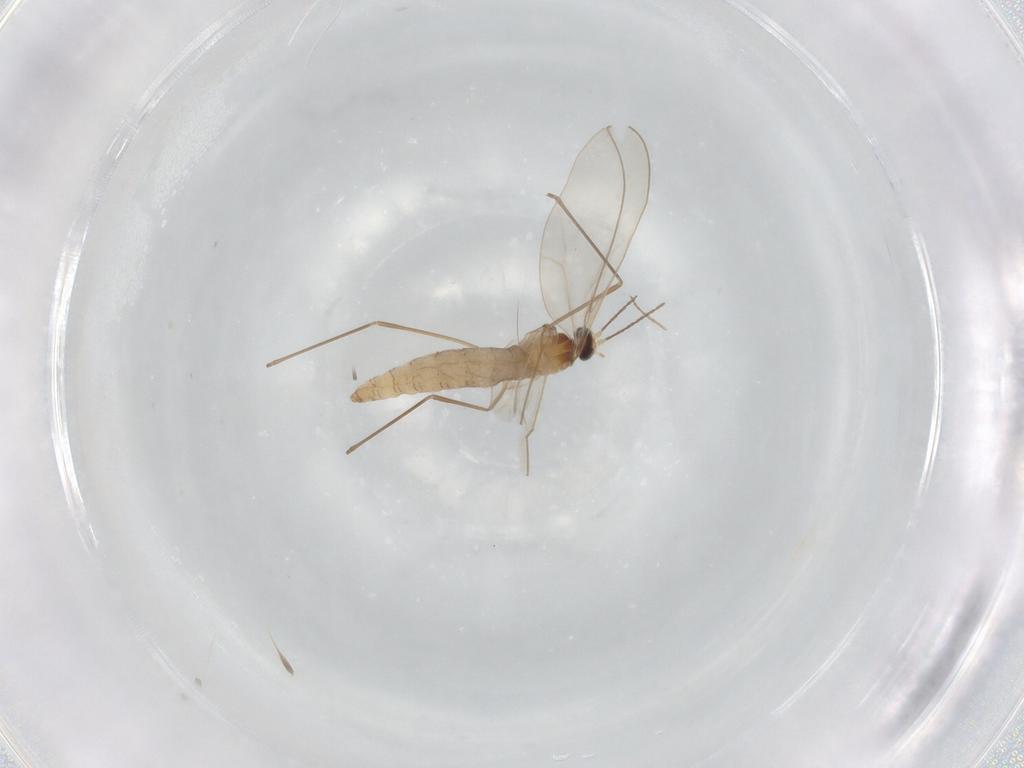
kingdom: Animalia
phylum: Arthropoda
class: Insecta
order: Diptera
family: Cecidomyiidae
